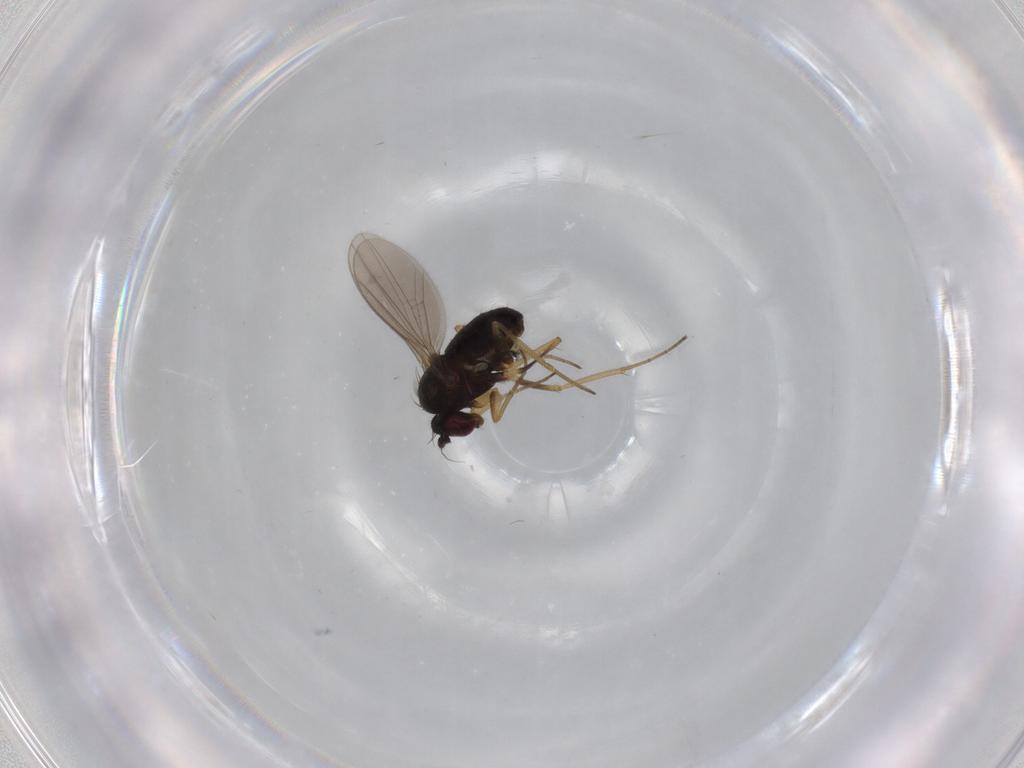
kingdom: Animalia
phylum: Arthropoda
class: Insecta
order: Diptera
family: Dolichopodidae
